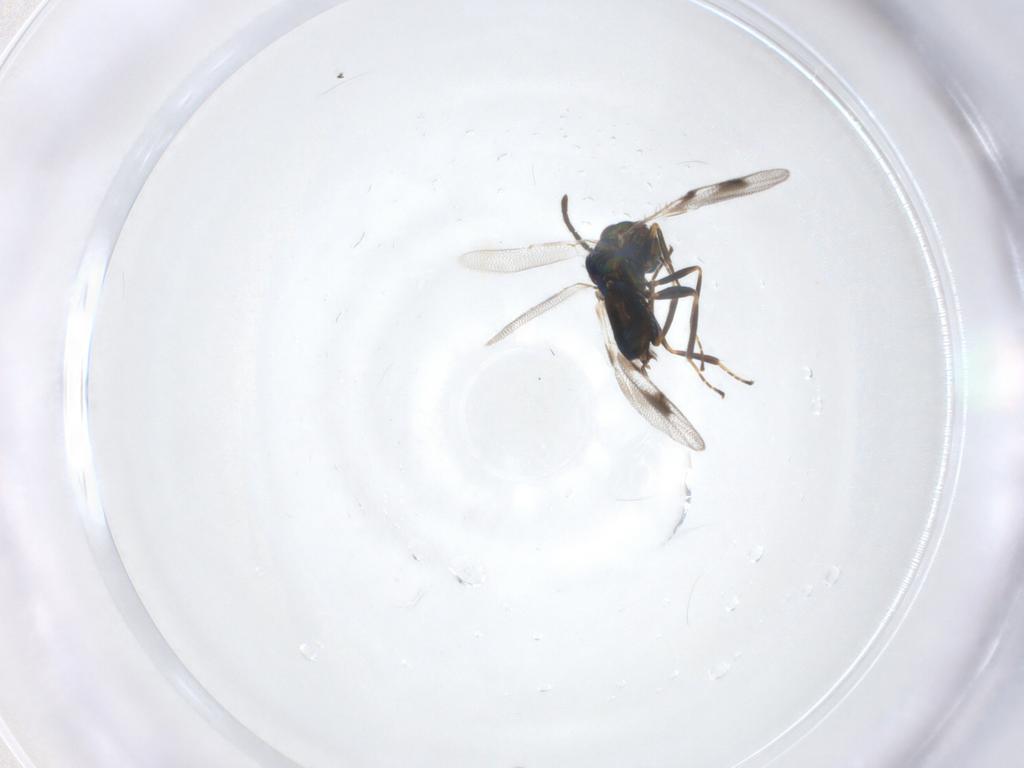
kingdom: Animalia
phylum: Arthropoda
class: Insecta
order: Hymenoptera
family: Pteromalidae
